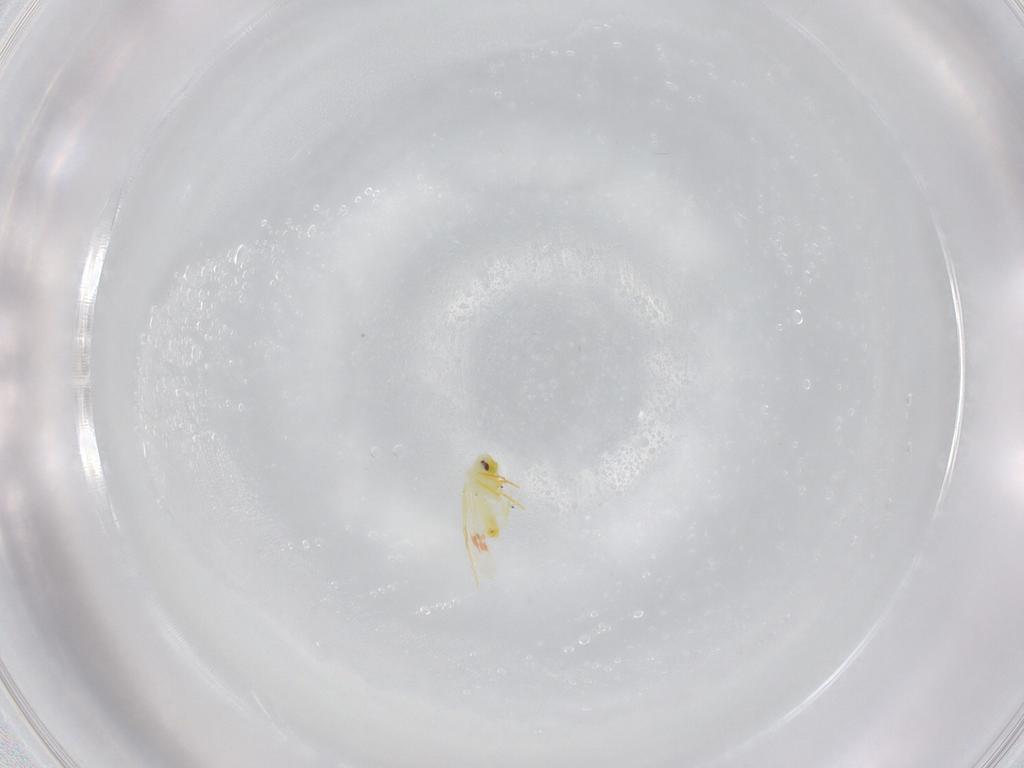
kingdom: Animalia
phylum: Arthropoda
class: Insecta
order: Hemiptera
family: Aleyrodidae
